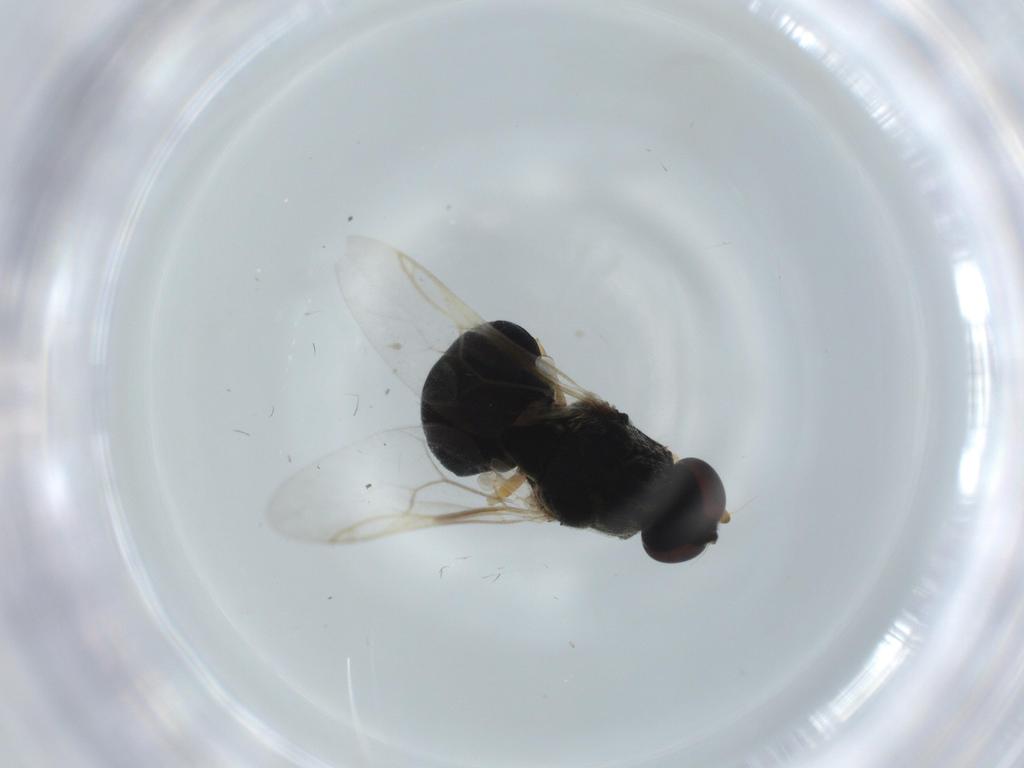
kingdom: Animalia
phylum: Arthropoda
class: Insecta
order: Diptera
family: Stratiomyidae
